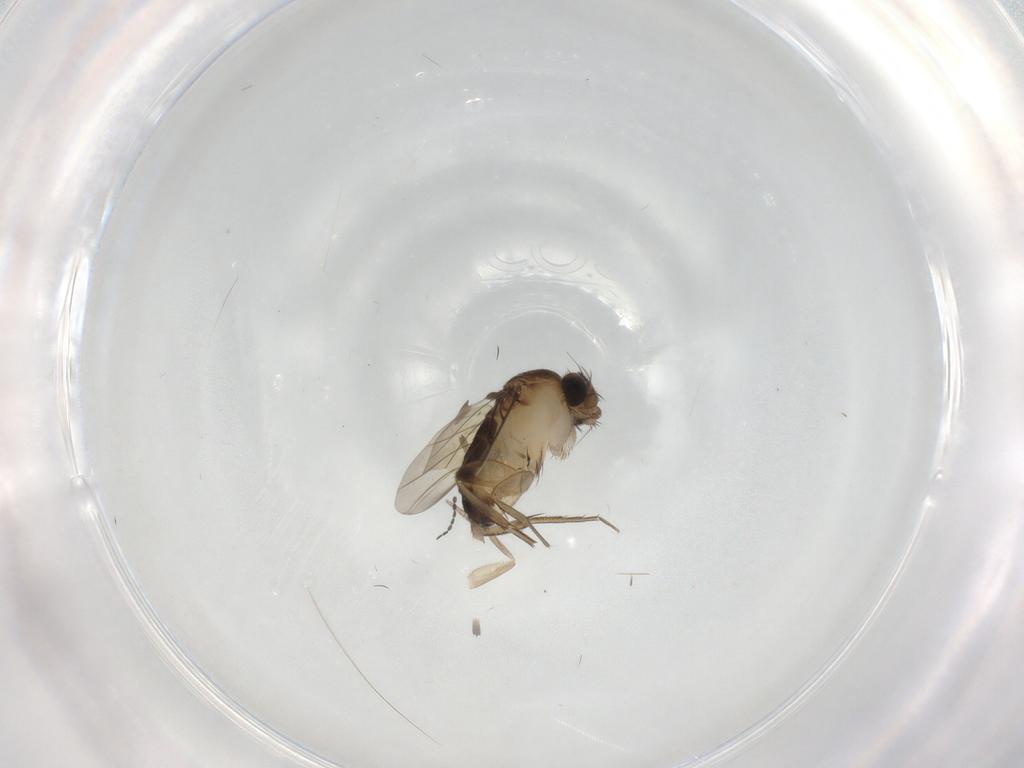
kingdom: Animalia
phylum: Arthropoda
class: Insecta
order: Diptera
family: Cecidomyiidae
